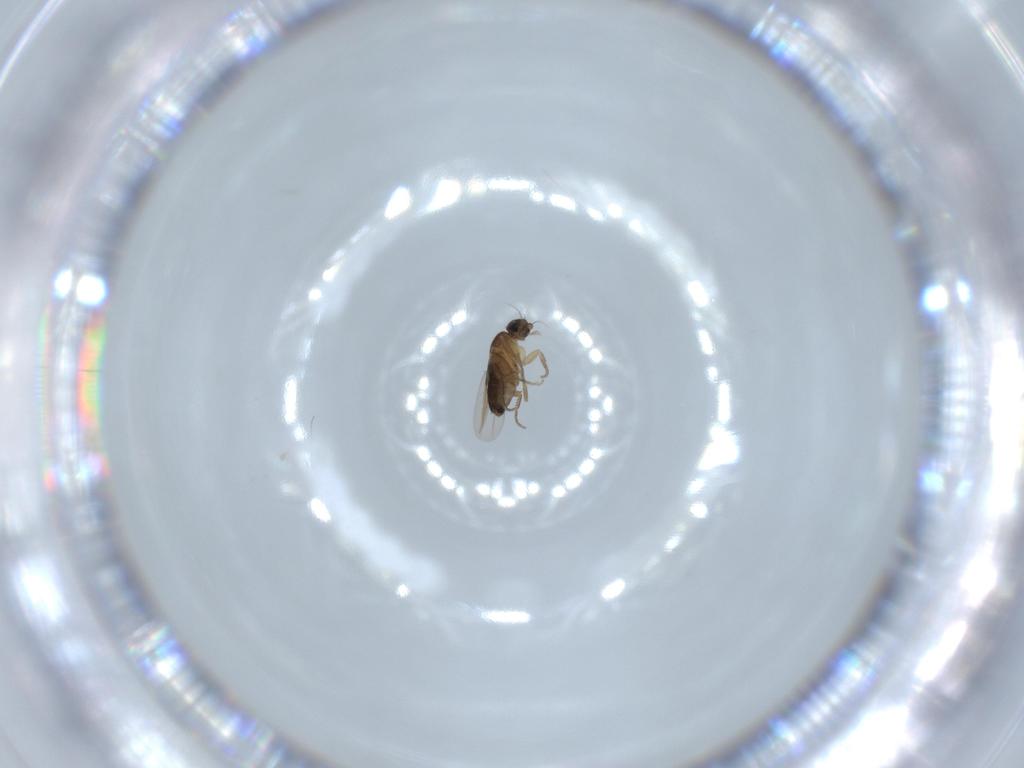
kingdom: Animalia
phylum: Arthropoda
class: Insecta
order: Diptera
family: Phoridae
